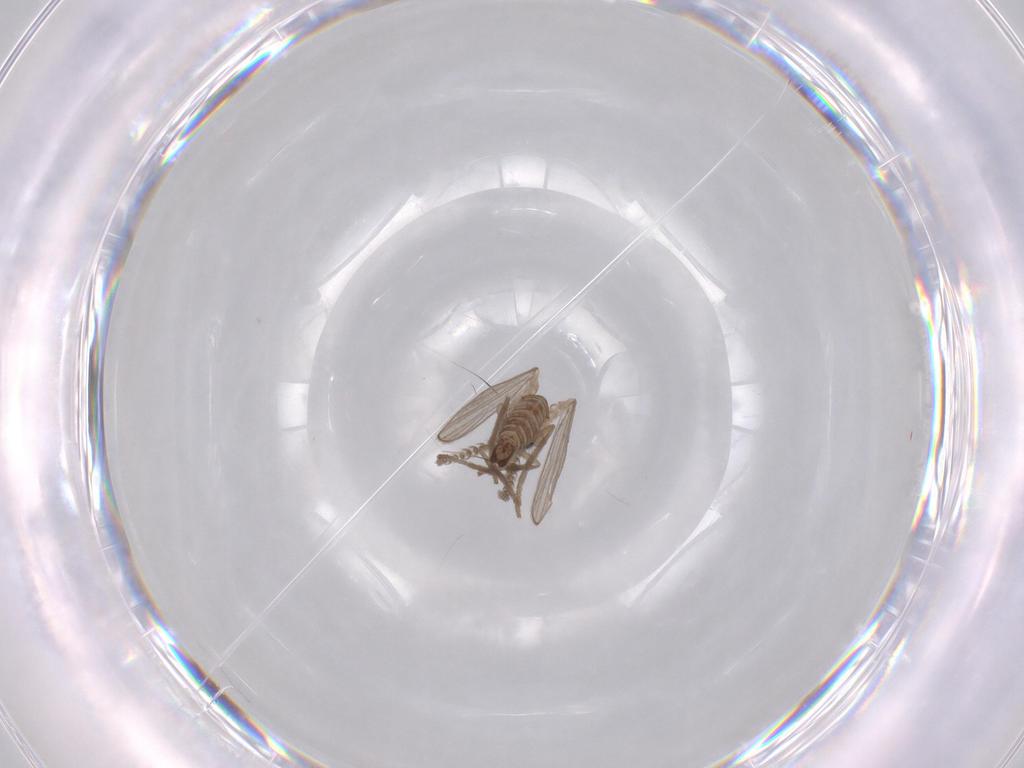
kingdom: Animalia
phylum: Arthropoda
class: Insecta
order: Diptera
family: Psychodidae
